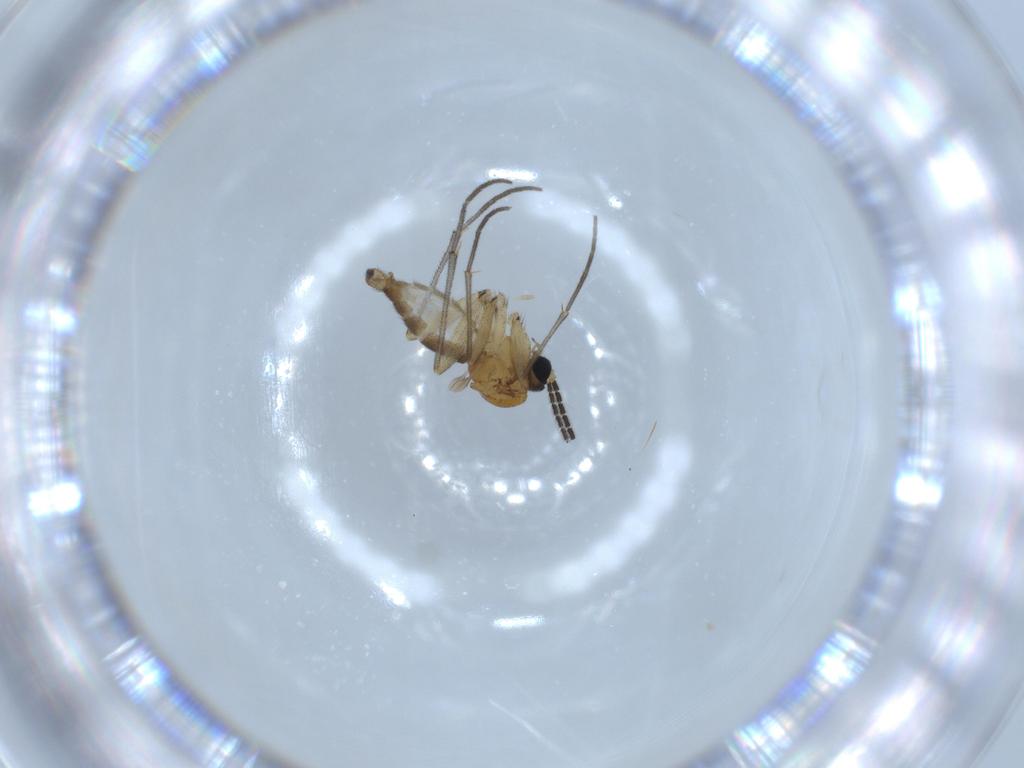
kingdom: Animalia
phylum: Arthropoda
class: Insecta
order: Diptera
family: Sciaridae
